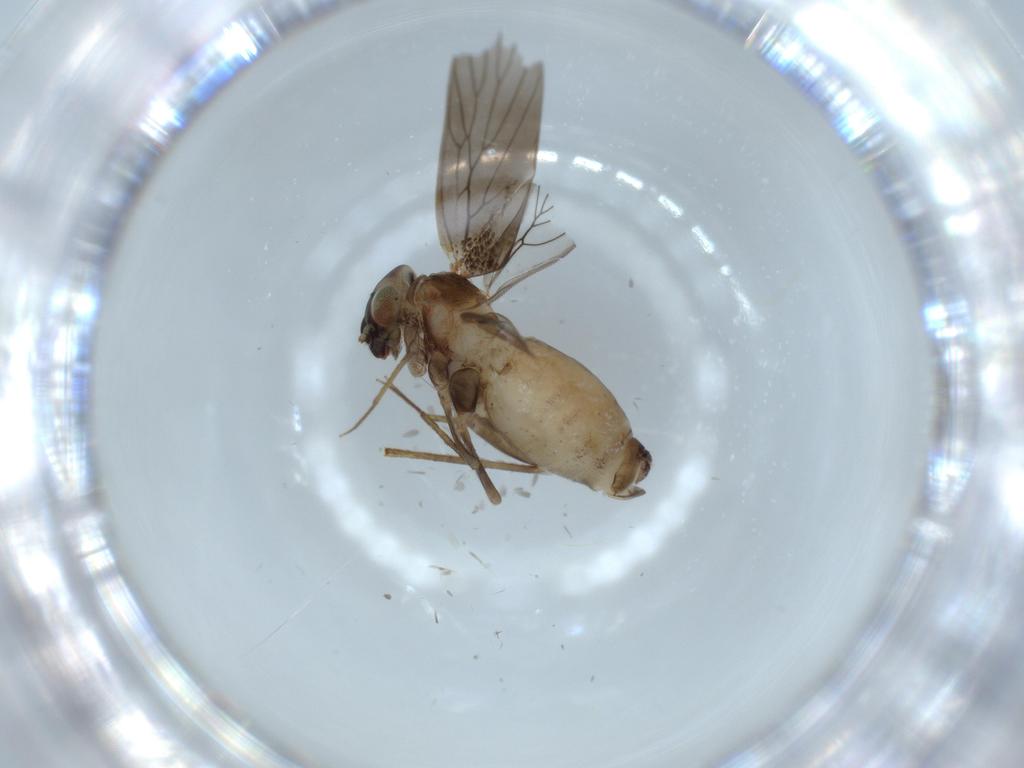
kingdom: Animalia
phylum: Arthropoda
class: Insecta
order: Psocodea
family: Lepidopsocidae
